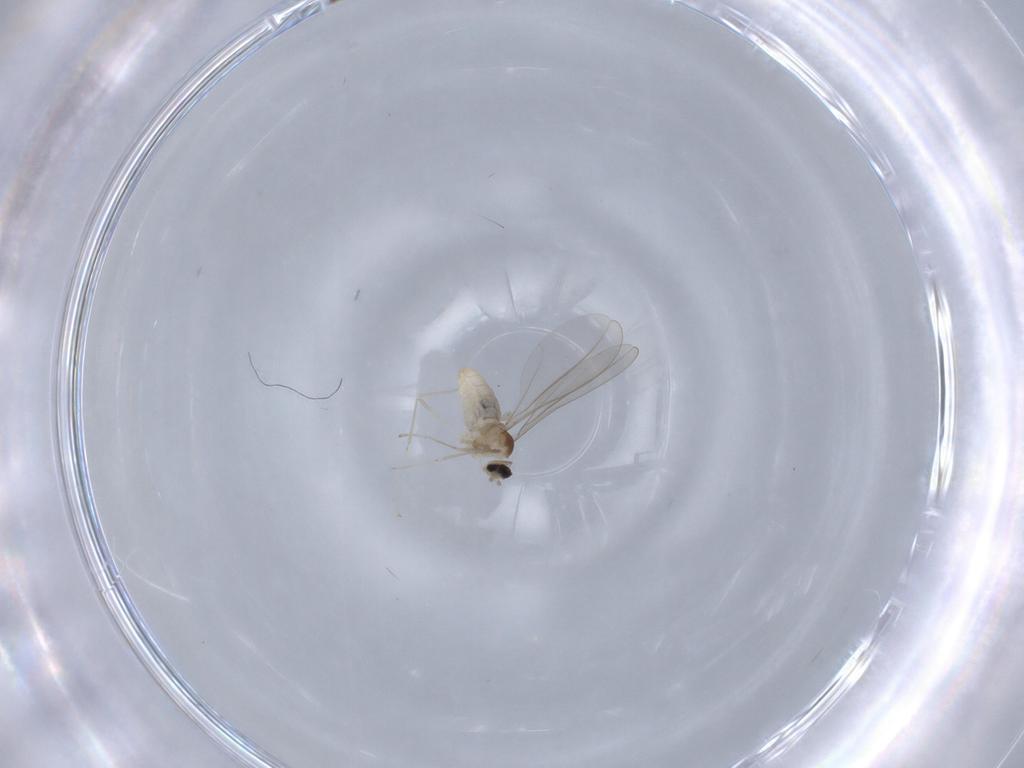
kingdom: Animalia
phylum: Arthropoda
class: Insecta
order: Diptera
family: Cecidomyiidae
